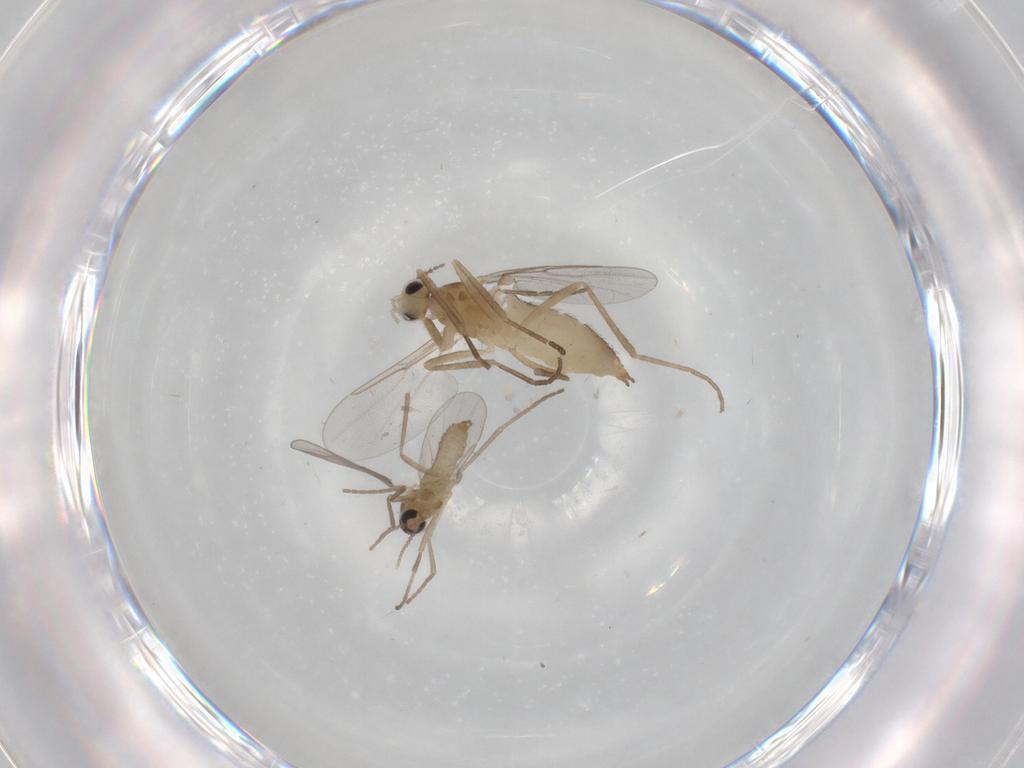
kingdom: Animalia
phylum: Arthropoda
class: Insecta
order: Diptera
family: Cecidomyiidae
